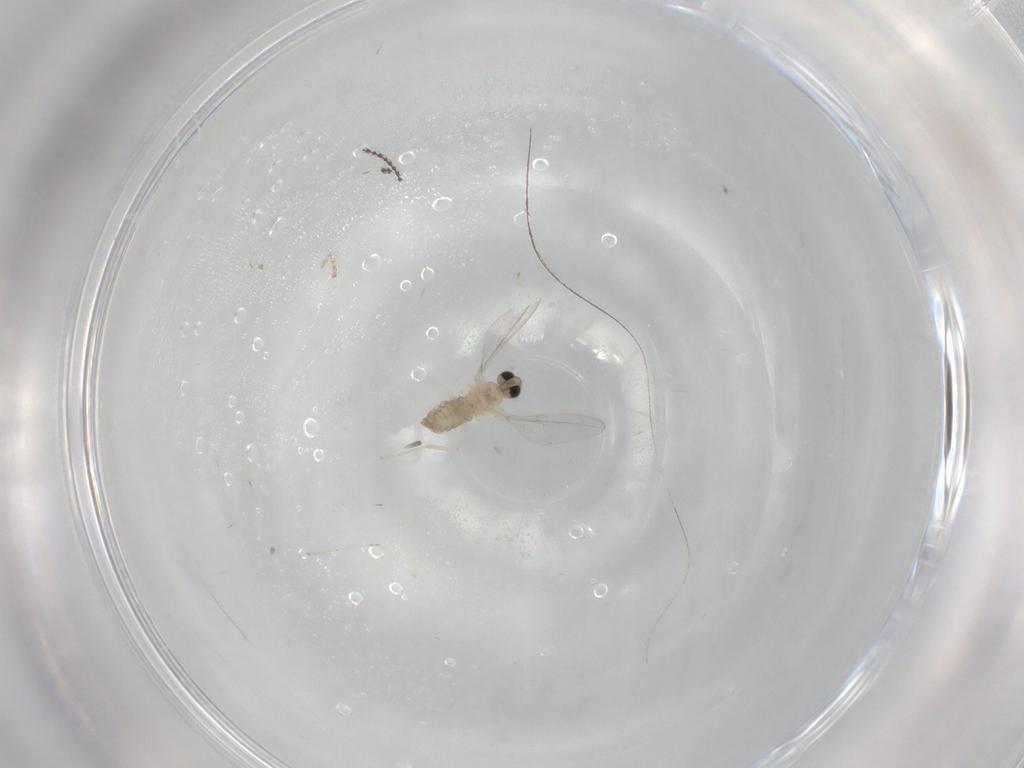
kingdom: Animalia
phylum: Arthropoda
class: Insecta
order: Diptera
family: Cecidomyiidae
